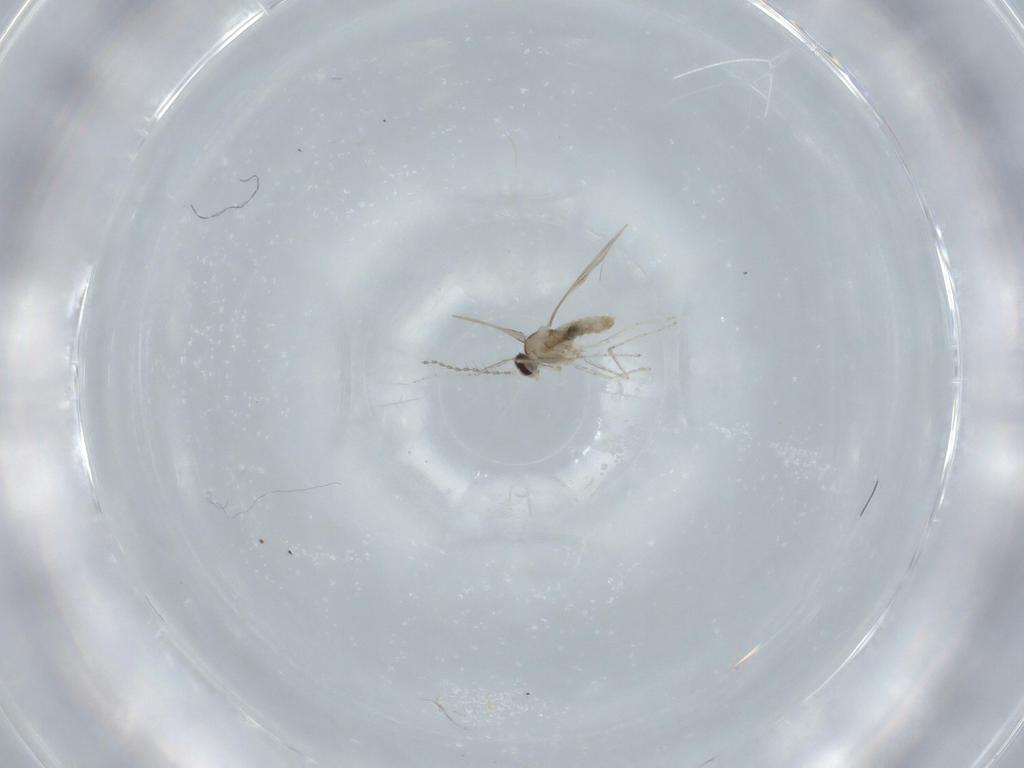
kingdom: Animalia
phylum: Arthropoda
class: Insecta
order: Diptera
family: Cecidomyiidae
